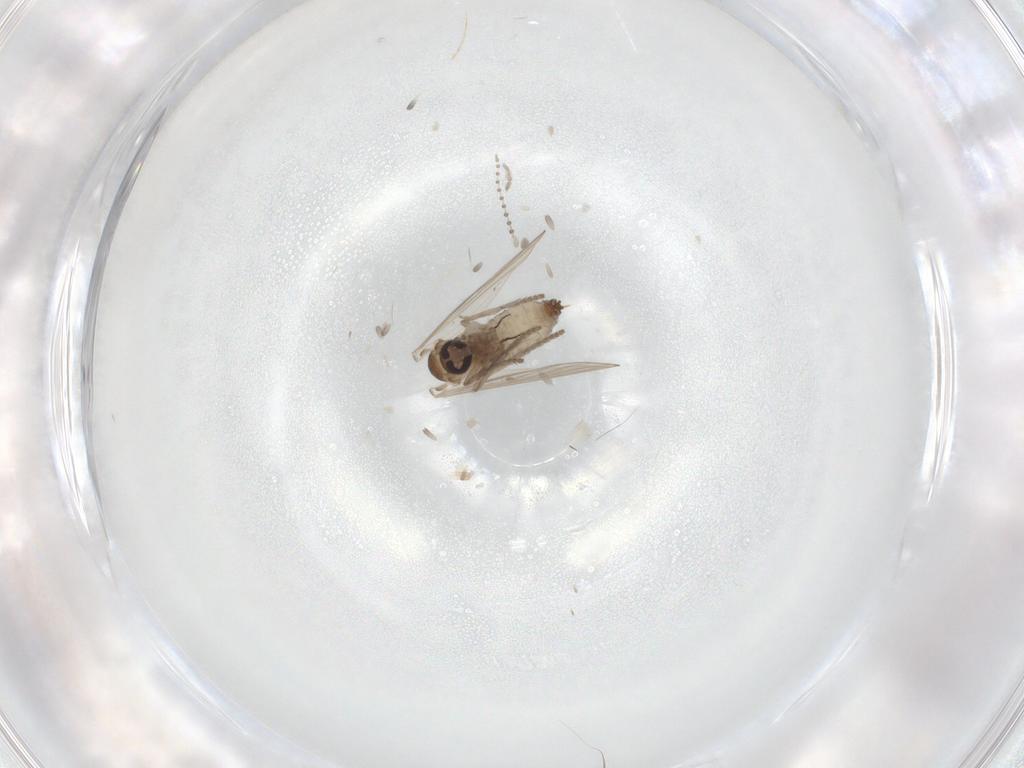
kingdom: Animalia
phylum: Arthropoda
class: Insecta
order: Diptera
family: Psychodidae
